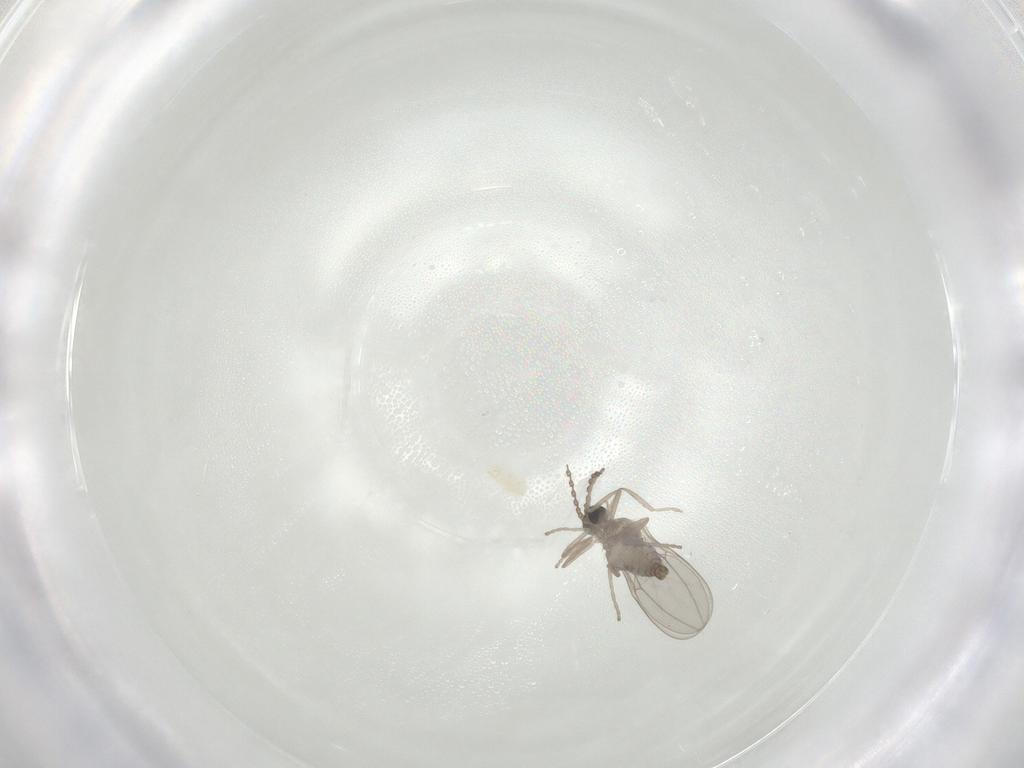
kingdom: Animalia
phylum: Arthropoda
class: Insecta
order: Diptera
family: Cecidomyiidae
